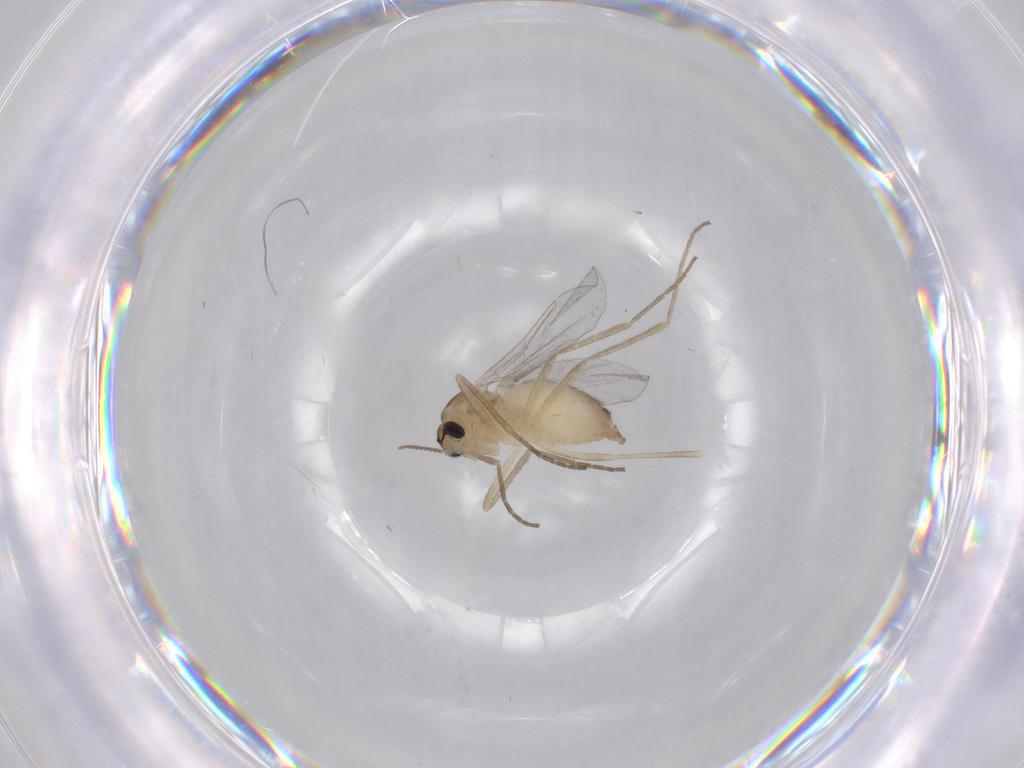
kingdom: Animalia
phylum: Arthropoda
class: Insecta
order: Diptera
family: Cecidomyiidae
